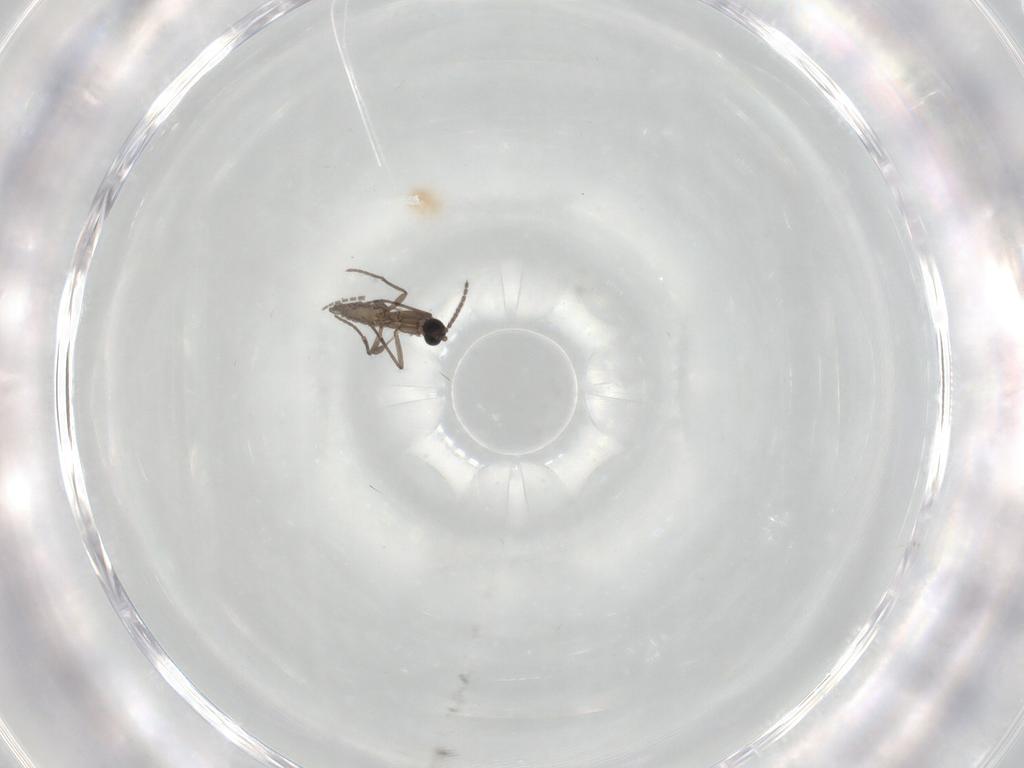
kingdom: Animalia
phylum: Arthropoda
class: Insecta
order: Diptera
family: Sciaridae
